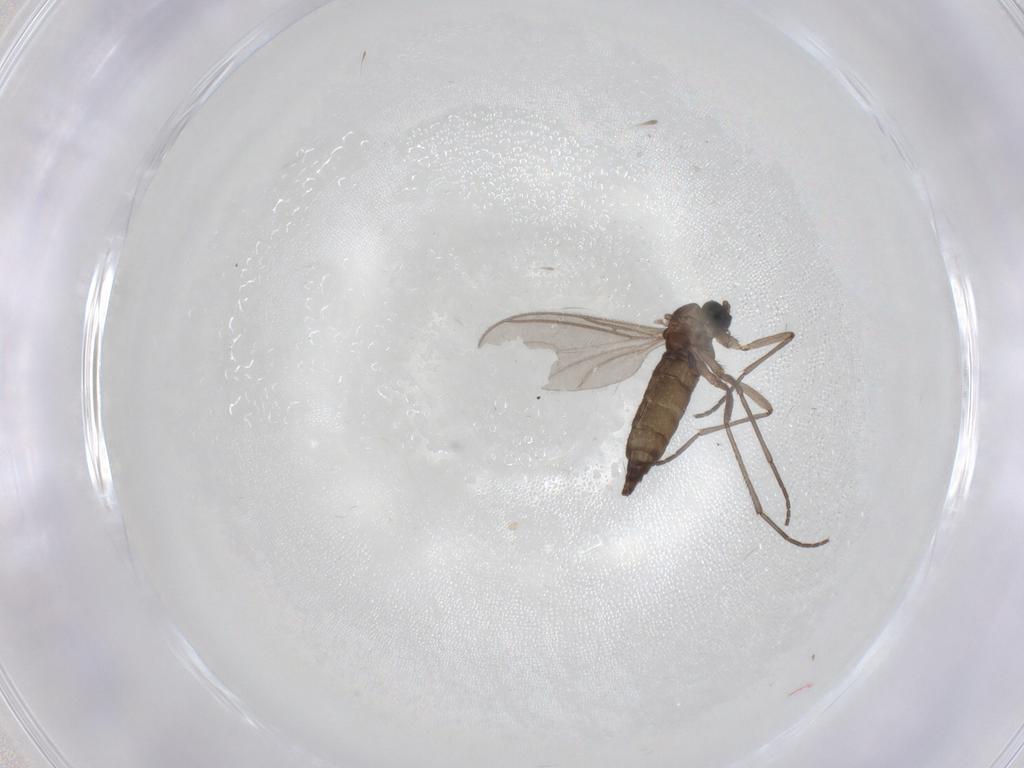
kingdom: Animalia
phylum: Arthropoda
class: Insecta
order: Diptera
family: Sciaridae
